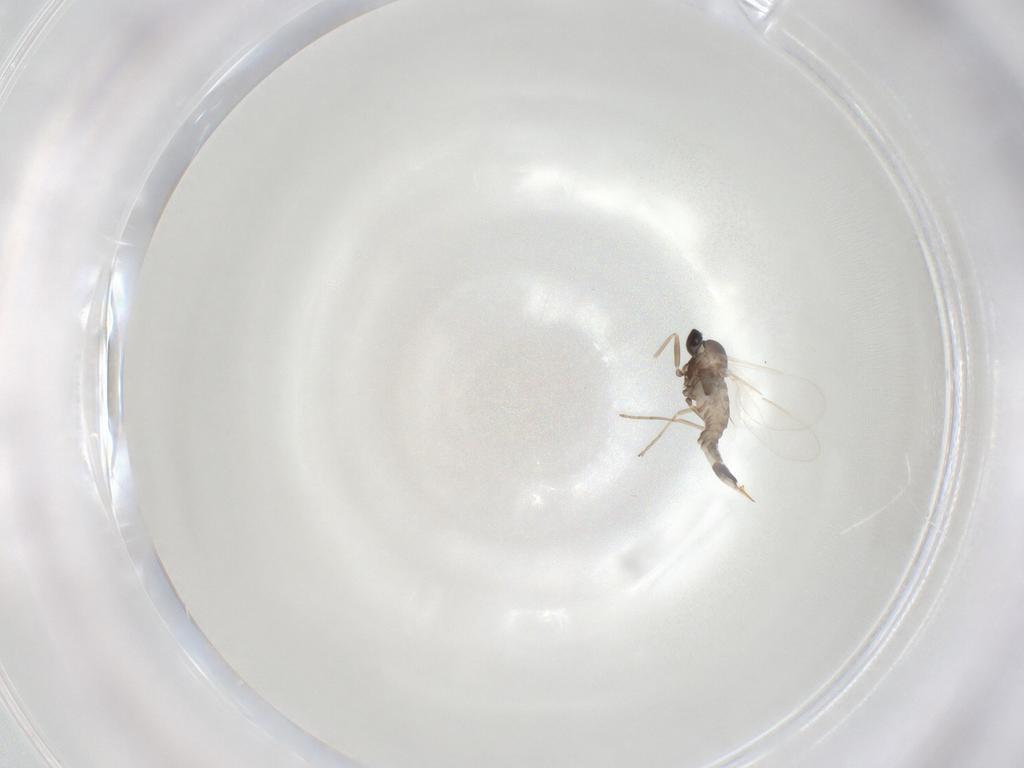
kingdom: Animalia
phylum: Arthropoda
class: Insecta
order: Diptera
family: Cecidomyiidae
